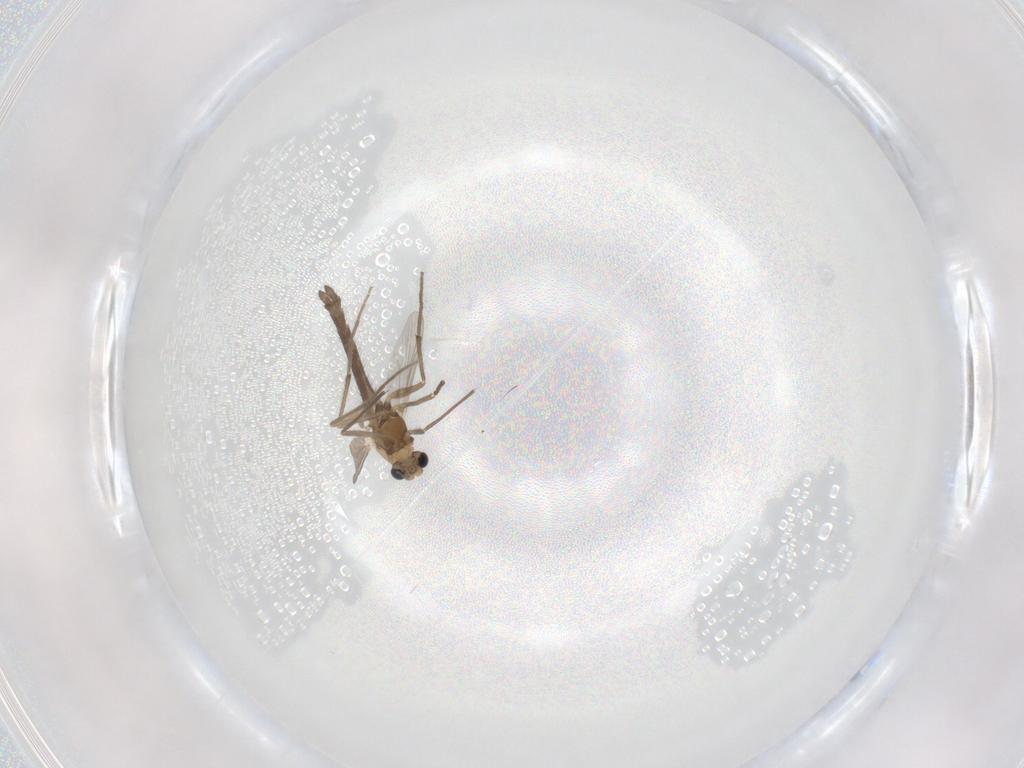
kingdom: Animalia
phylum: Arthropoda
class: Insecta
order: Diptera
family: Chironomidae
